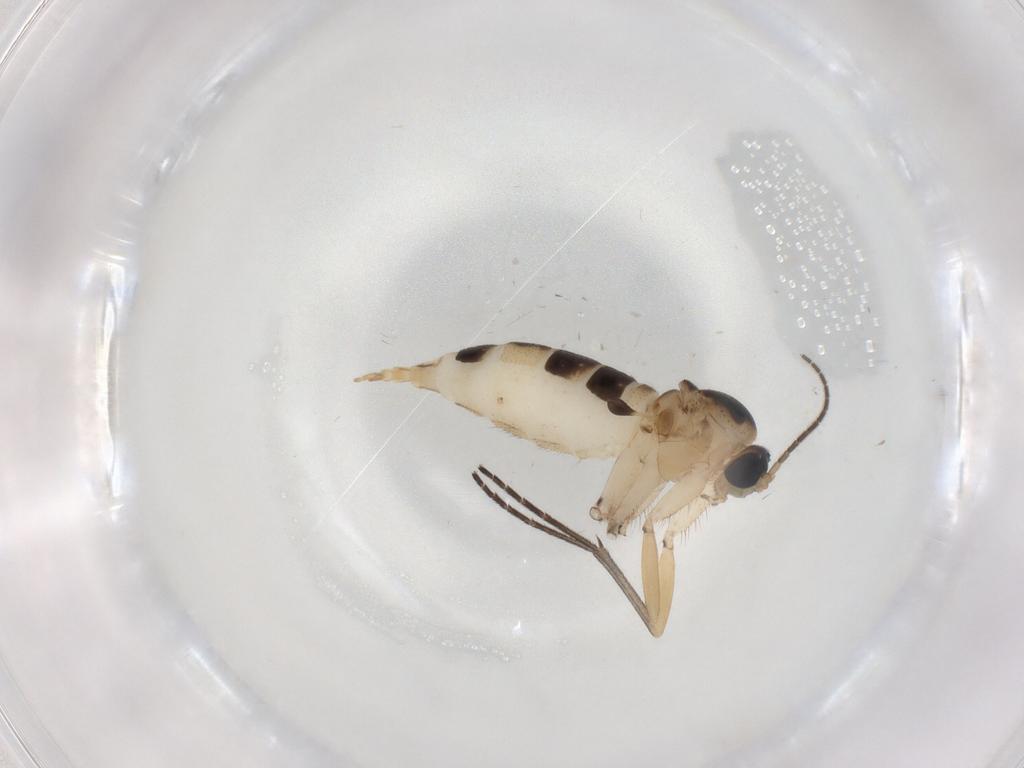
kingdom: Animalia
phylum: Arthropoda
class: Insecta
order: Diptera
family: Sciaridae
